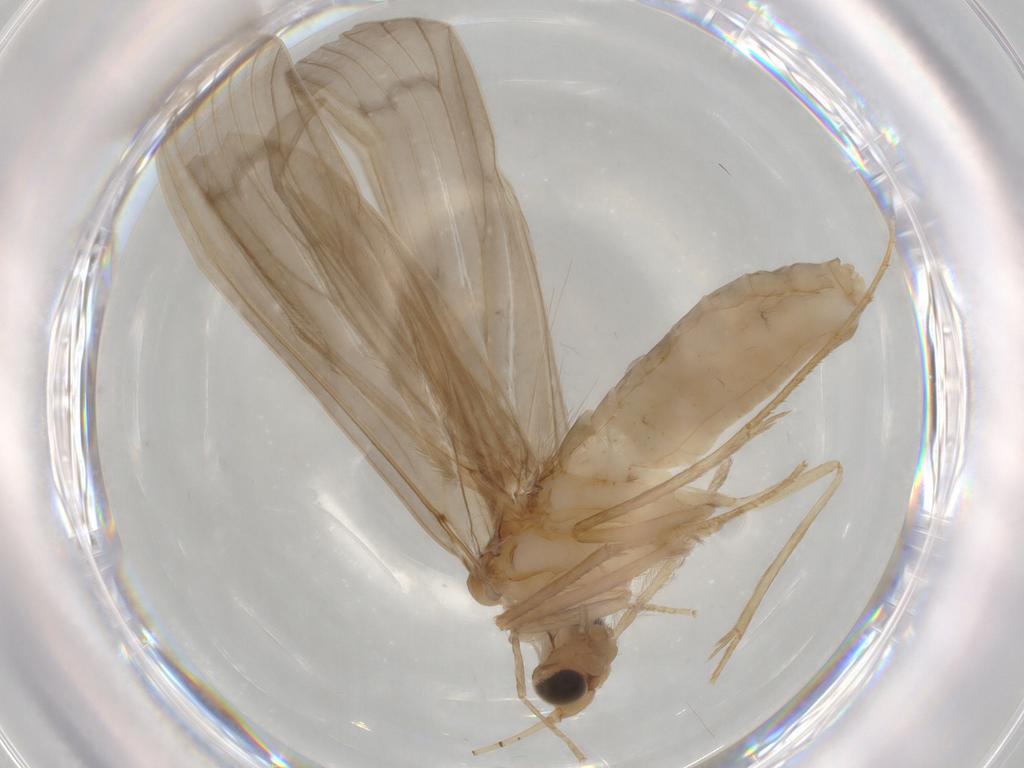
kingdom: Animalia
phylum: Arthropoda
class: Insecta
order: Trichoptera
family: Leptoceridae
